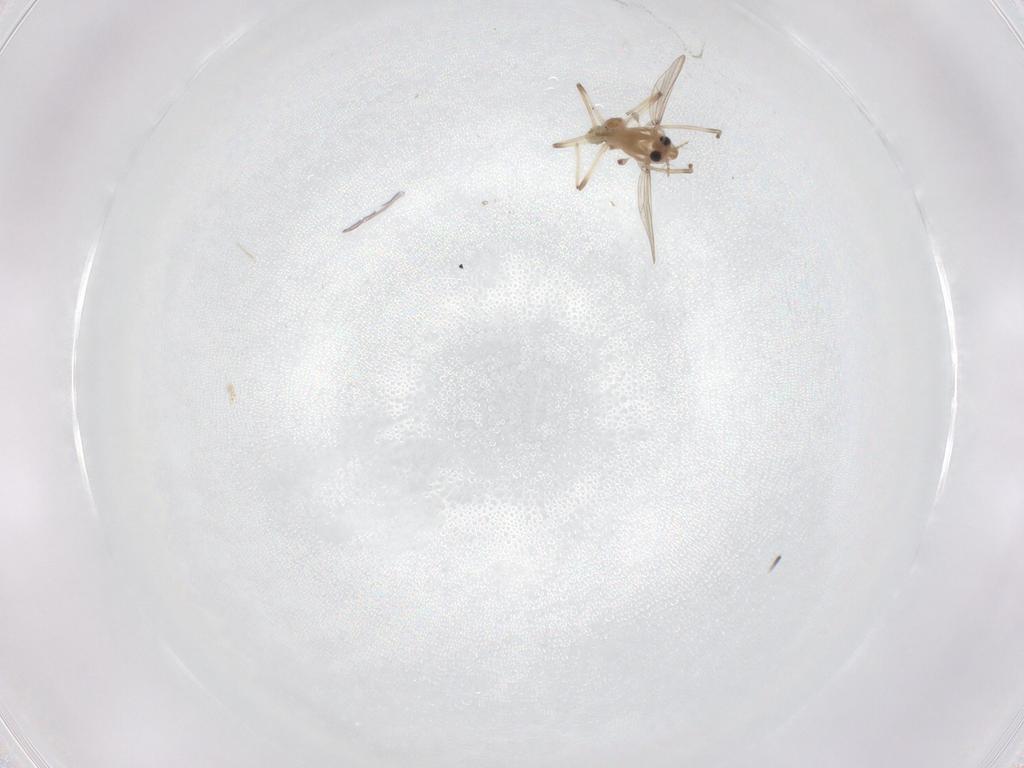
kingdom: Animalia
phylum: Arthropoda
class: Insecta
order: Diptera
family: Chironomidae
